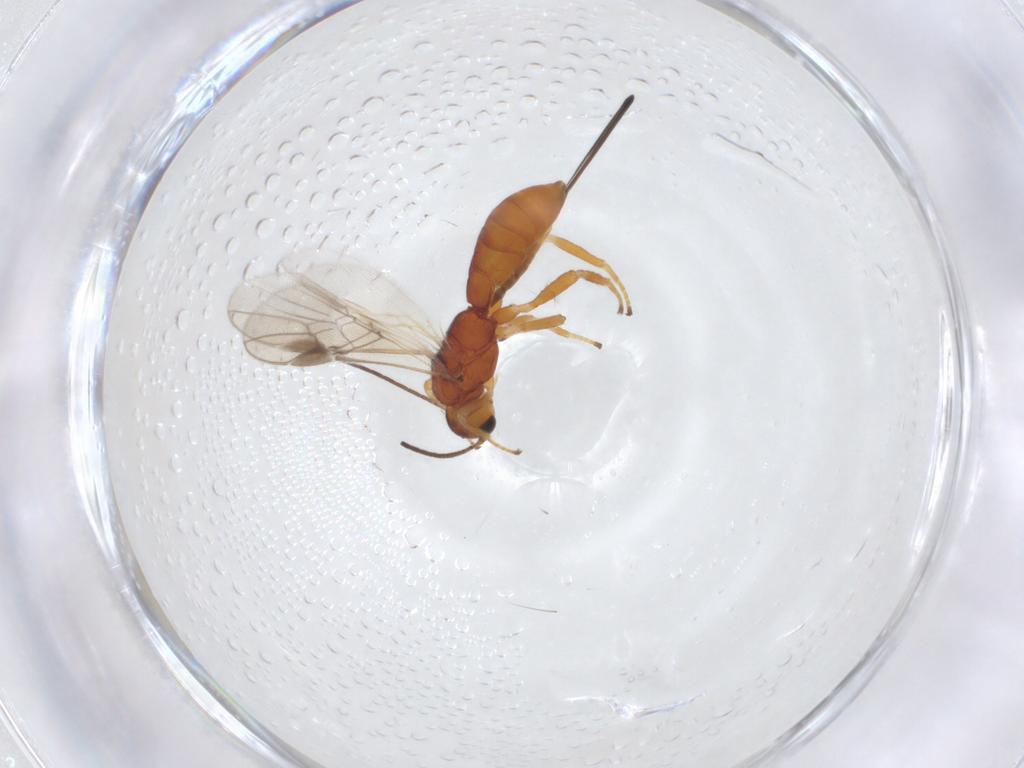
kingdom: Animalia
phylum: Arthropoda
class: Insecta
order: Hymenoptera
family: Braconidae
